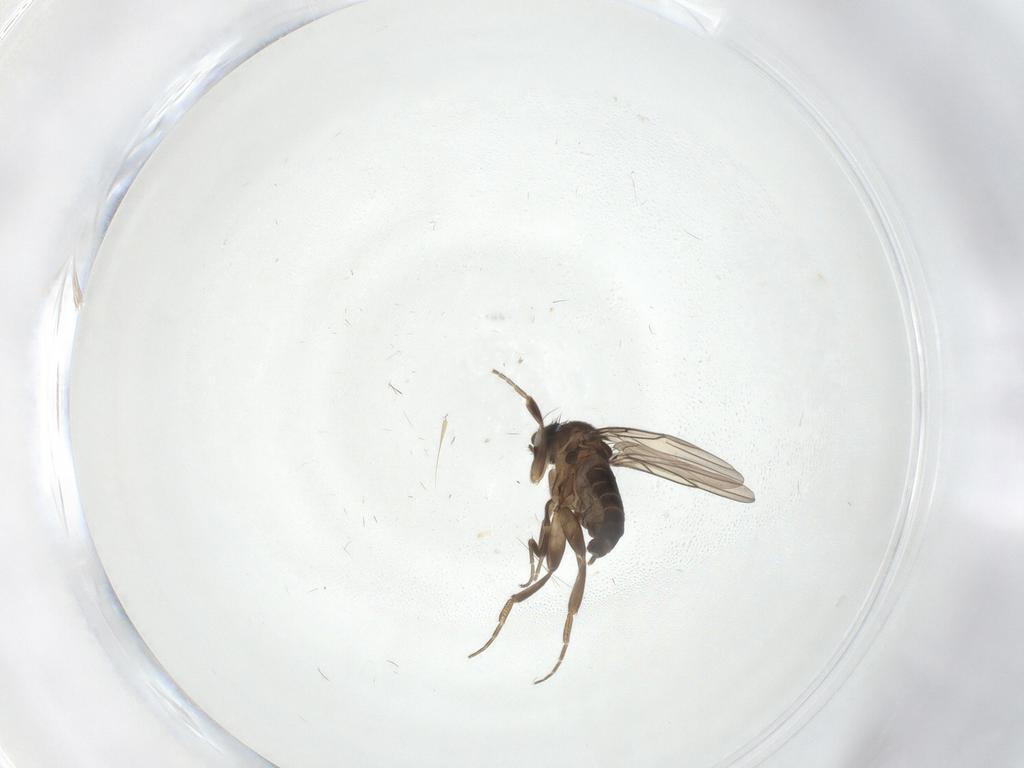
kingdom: Animalia
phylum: Arthropoda
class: Insecta
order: Diptera
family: Phoridae
